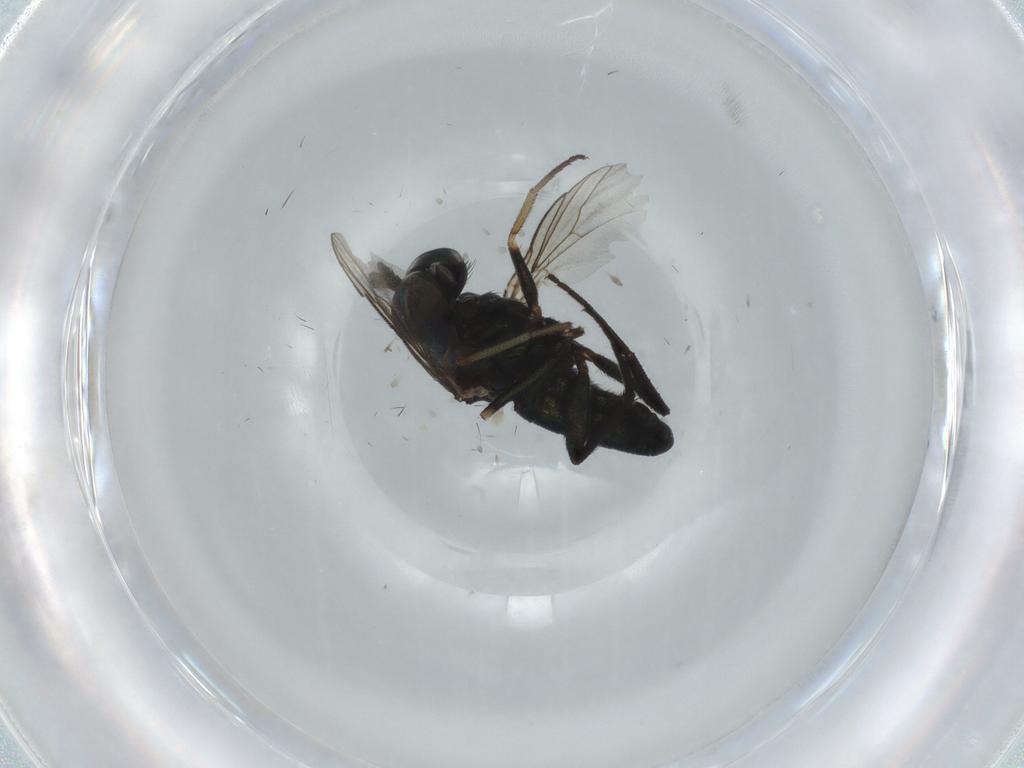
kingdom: Animalia
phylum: Arthropoda
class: Insecta
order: Diptera
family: Dolichopodidae
